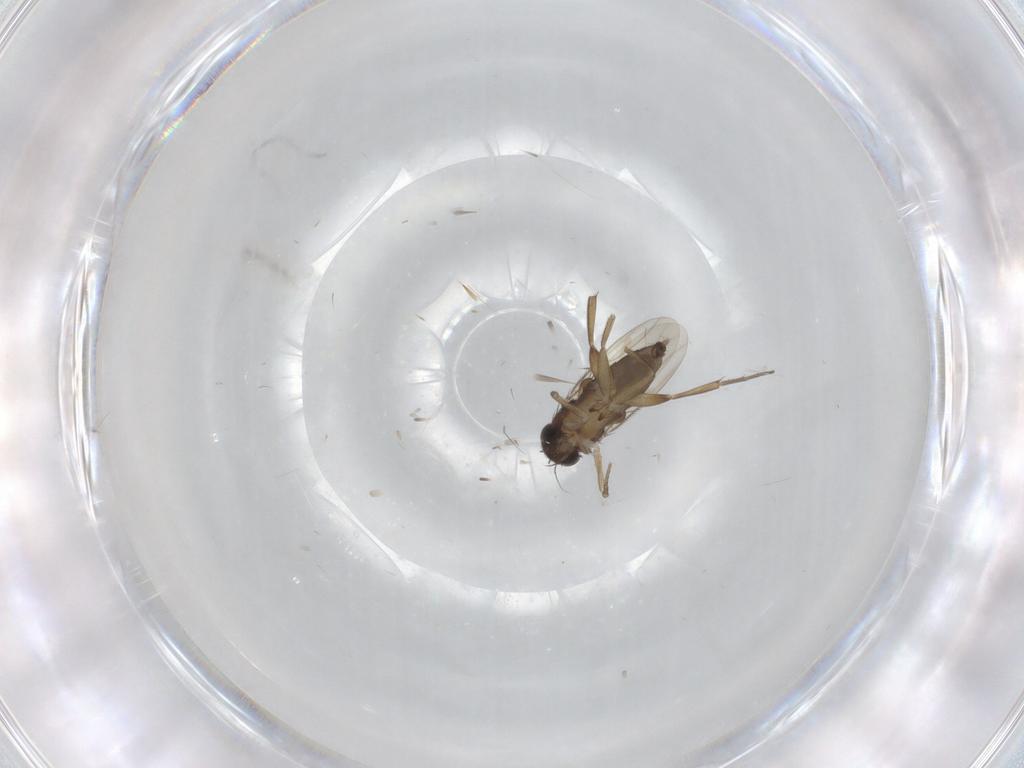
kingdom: Animalia
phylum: Arthropoda
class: Insecta
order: Diptera
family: Phoridae
